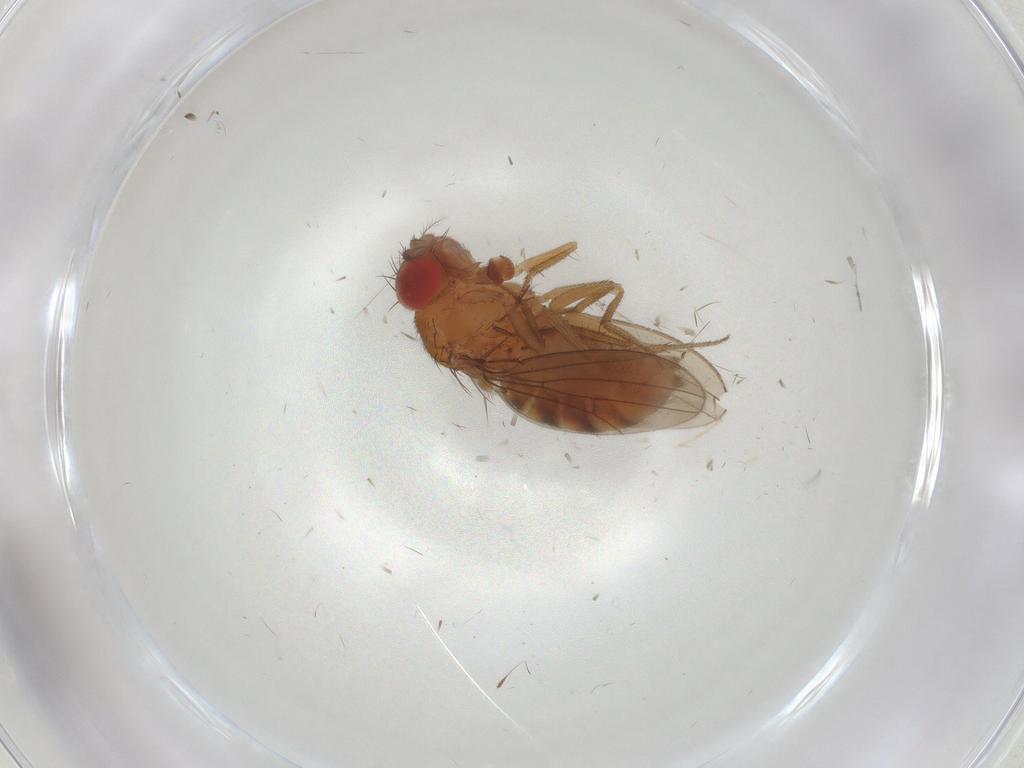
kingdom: Animalia
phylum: Arthropoda
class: Insecta
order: Diptera
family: Drosophilidae
